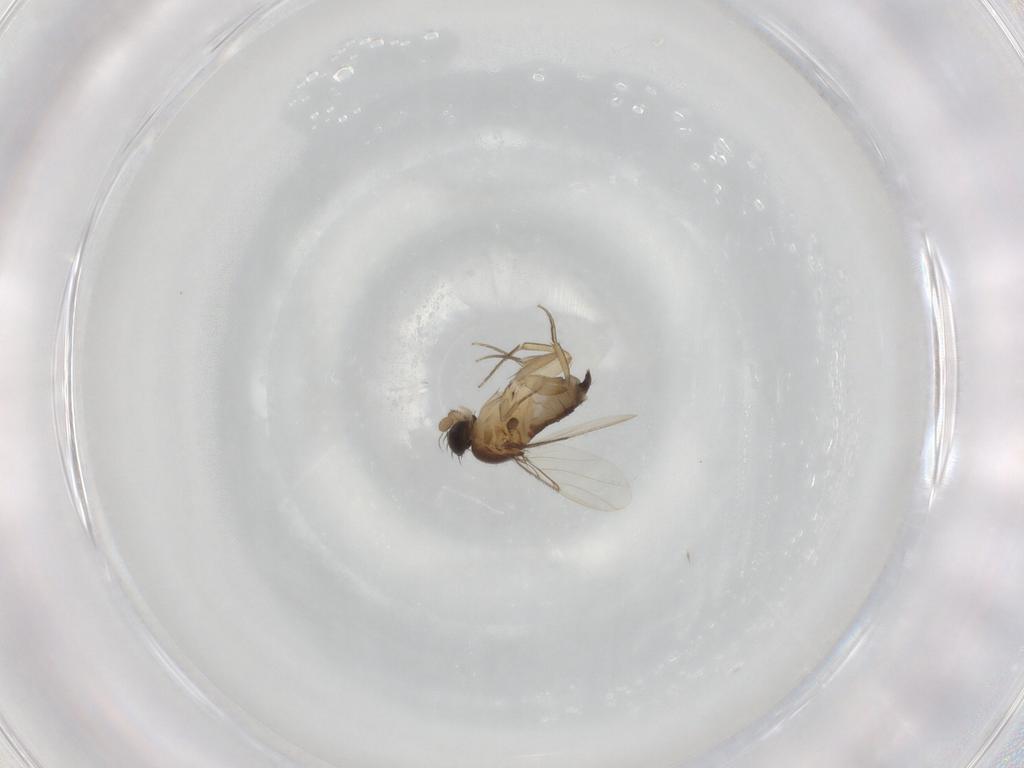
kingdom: Animalia
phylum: Arthropoda
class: Insecta
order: Diptera
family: Phoridae
